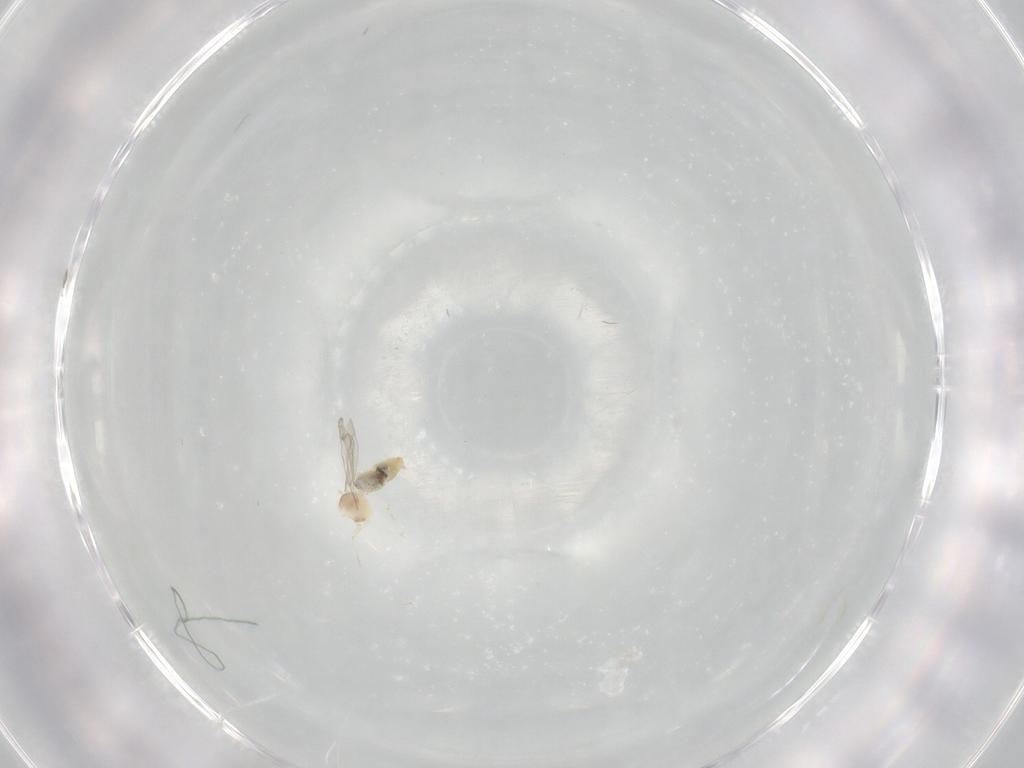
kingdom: Animalia
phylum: Arthropoda
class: Insecta
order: Diptera
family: Cecidomyiidae
